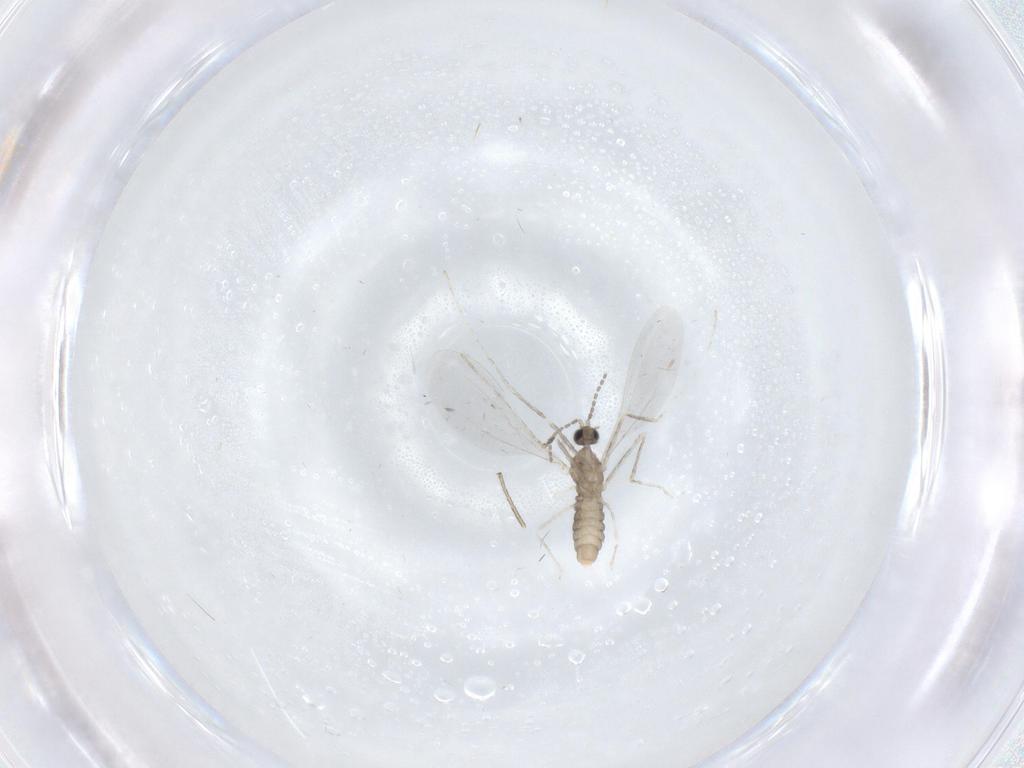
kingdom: Animalia
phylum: Arthropoda
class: Insecta
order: Diptera
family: Cecidomyiidae
